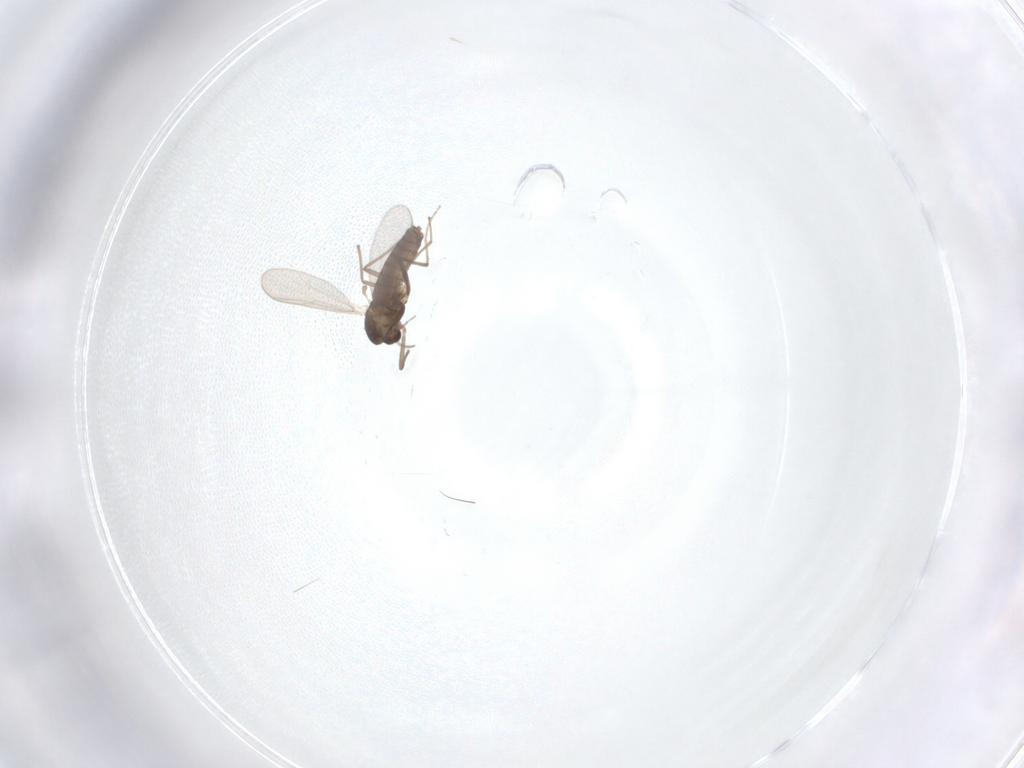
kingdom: Animalia
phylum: Arthropoda
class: Insecta
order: Diptera
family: Chironomidae
